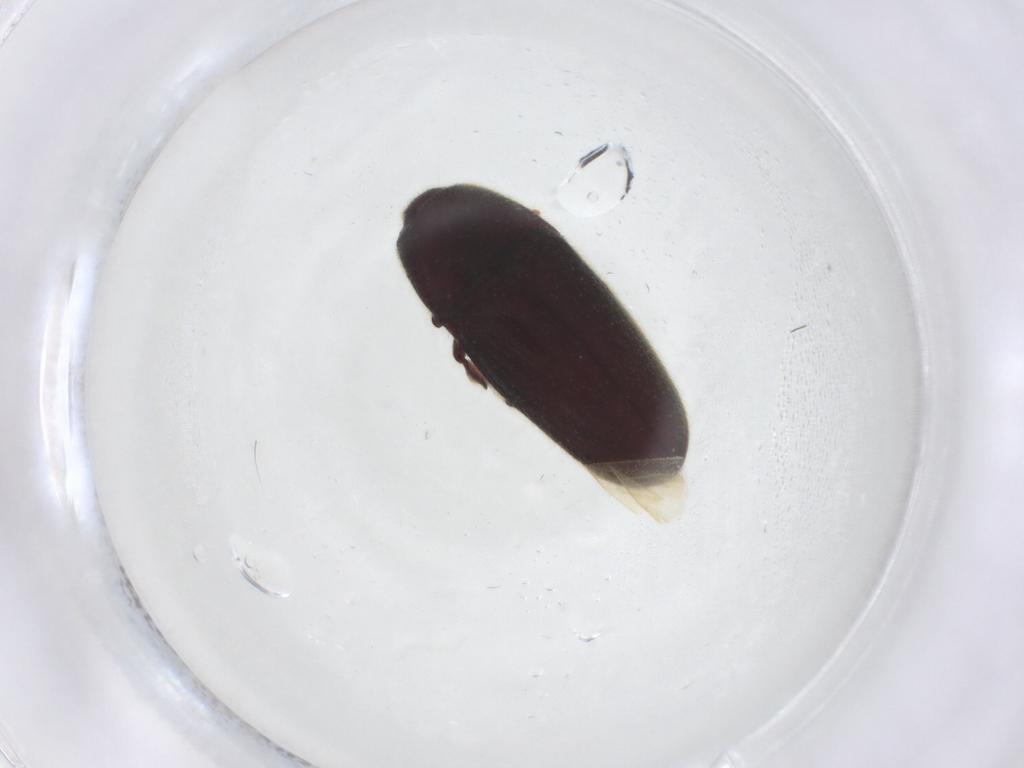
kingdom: Animalia
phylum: Arthropoda
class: Insecta
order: Coleoptera
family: Throscidae
